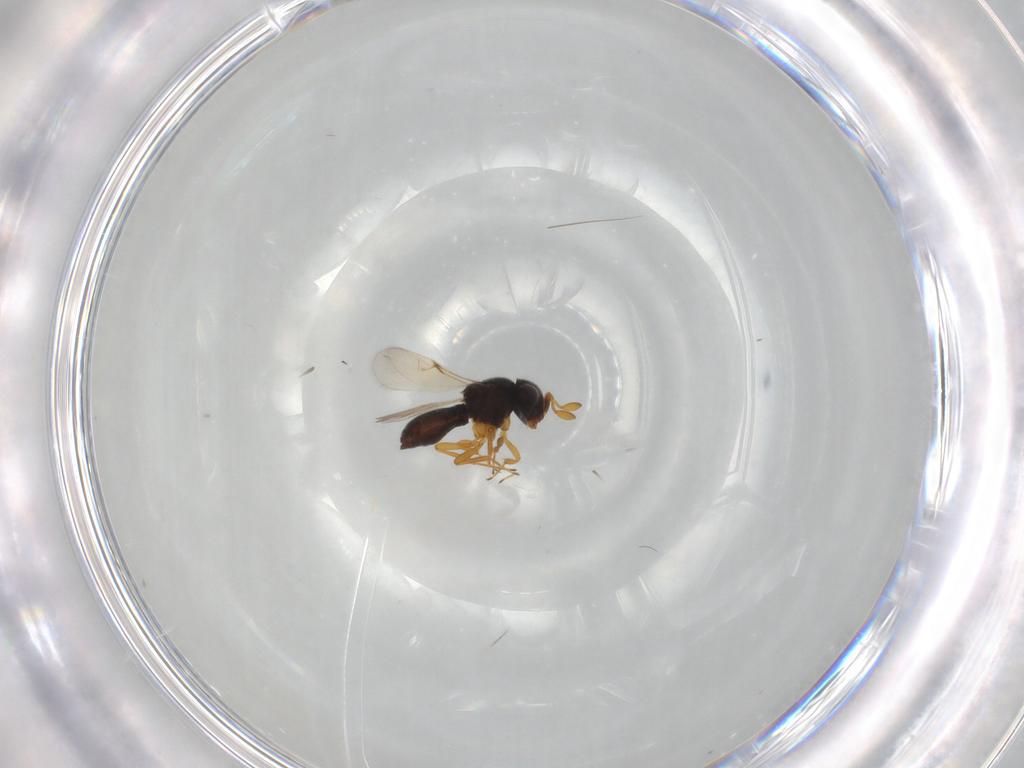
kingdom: Animalia
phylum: Arthropoda
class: Insecta
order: Hymenoptera
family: Scelionidae
